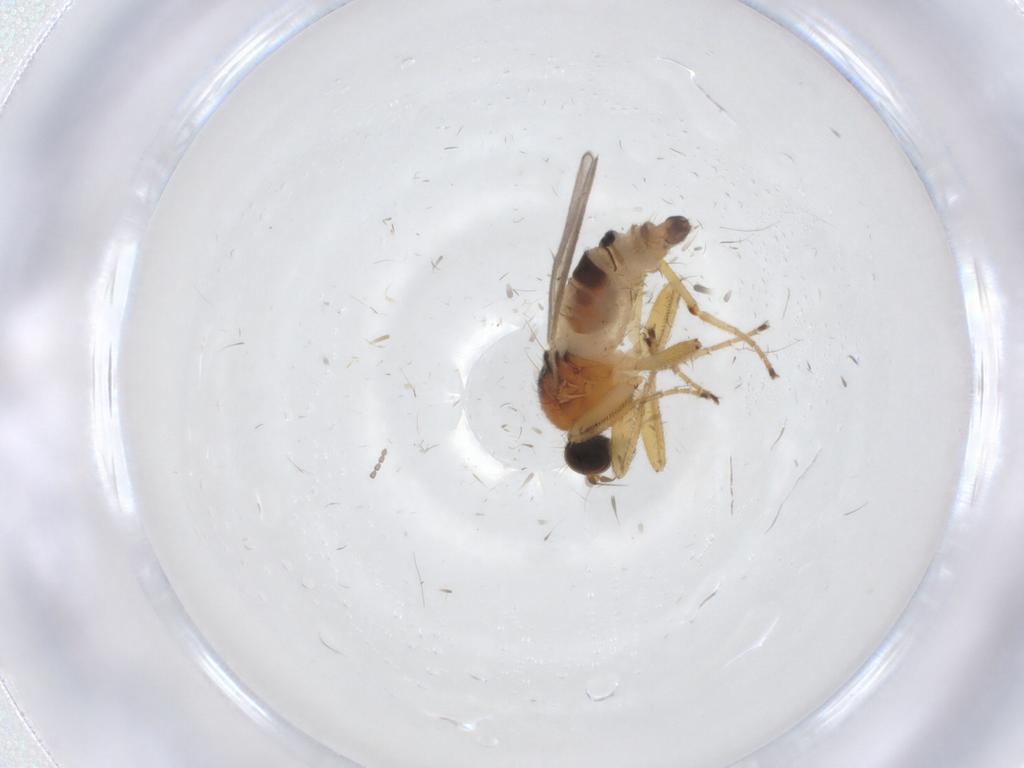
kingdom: Animalia
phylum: Arthropoda
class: Insecta
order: Diptera
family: Hybotidae
